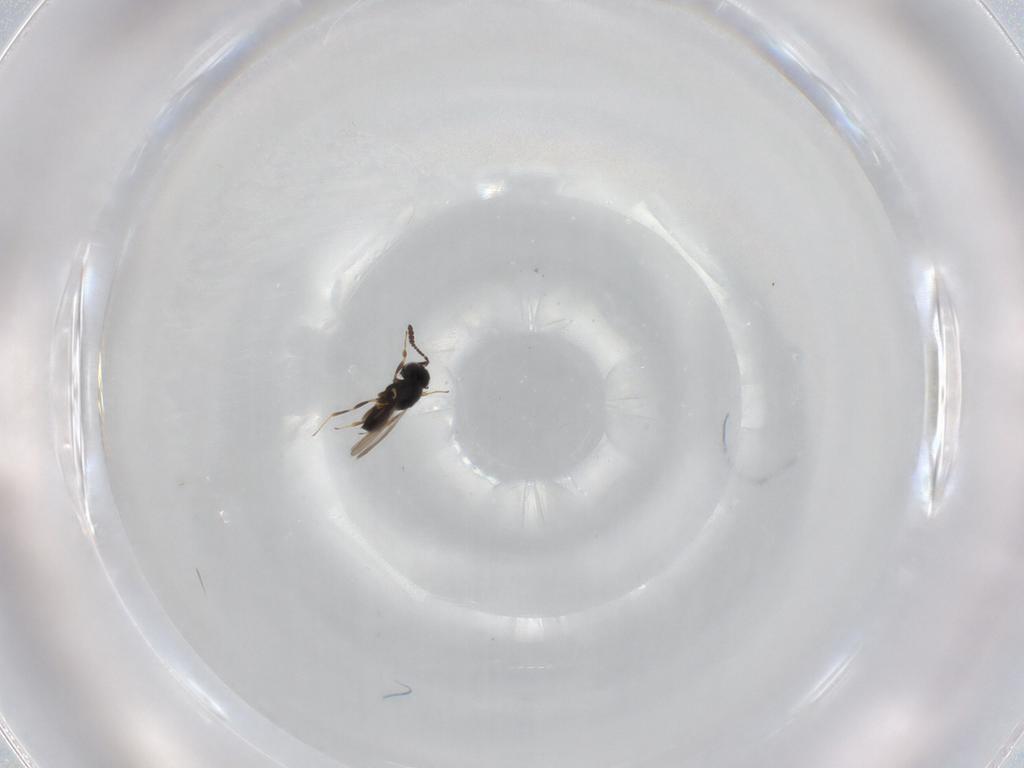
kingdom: Animalia
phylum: Arthropoda
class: Insecta
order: Hymenoptera
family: Scelionidae
